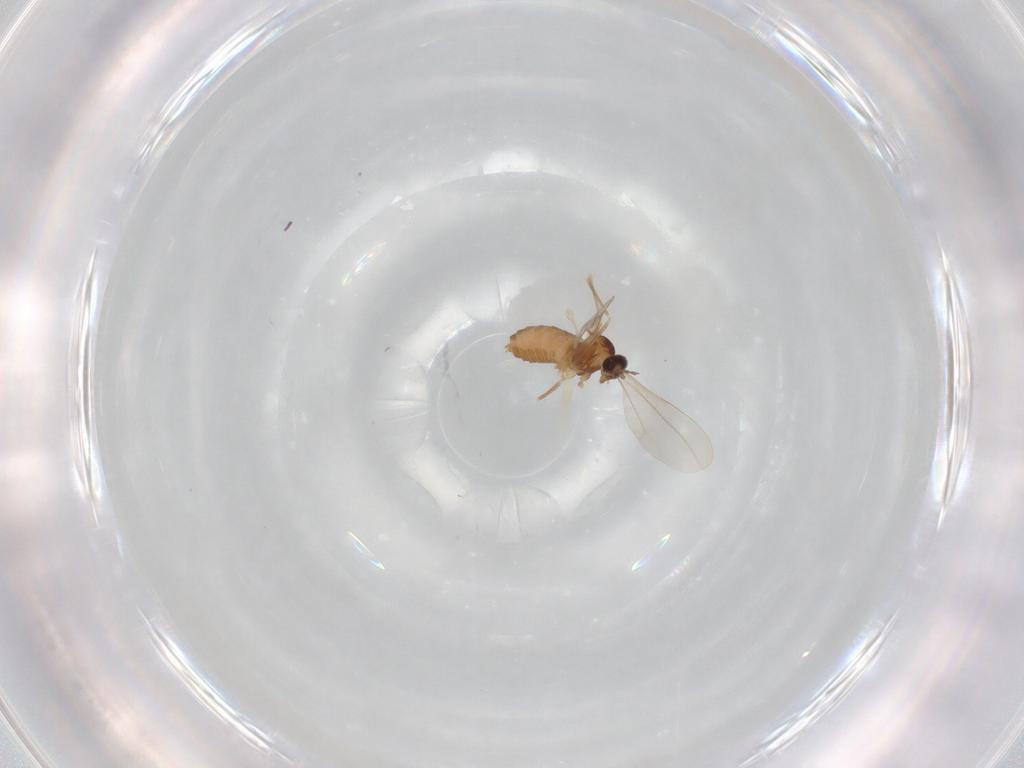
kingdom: Animalia
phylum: Arthropoda
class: Insecta
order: Diptera
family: Cecidomyiidae
